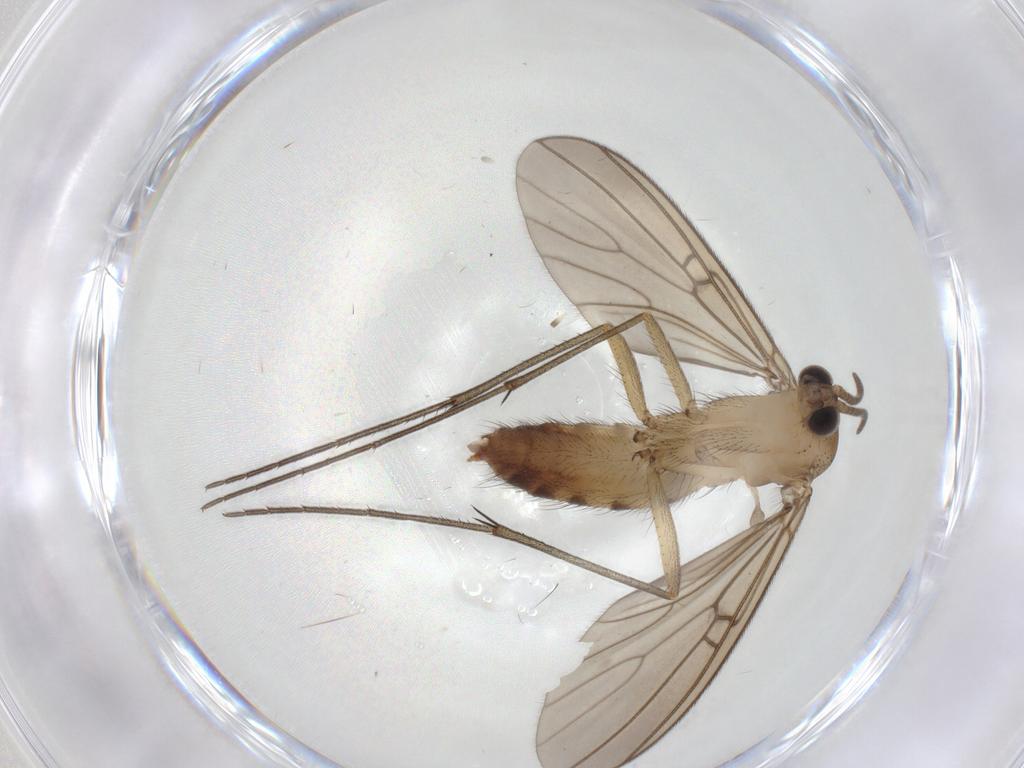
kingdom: Animalia
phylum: Arthropoda
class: Insecta
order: Diptera
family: Mycetophilidae
